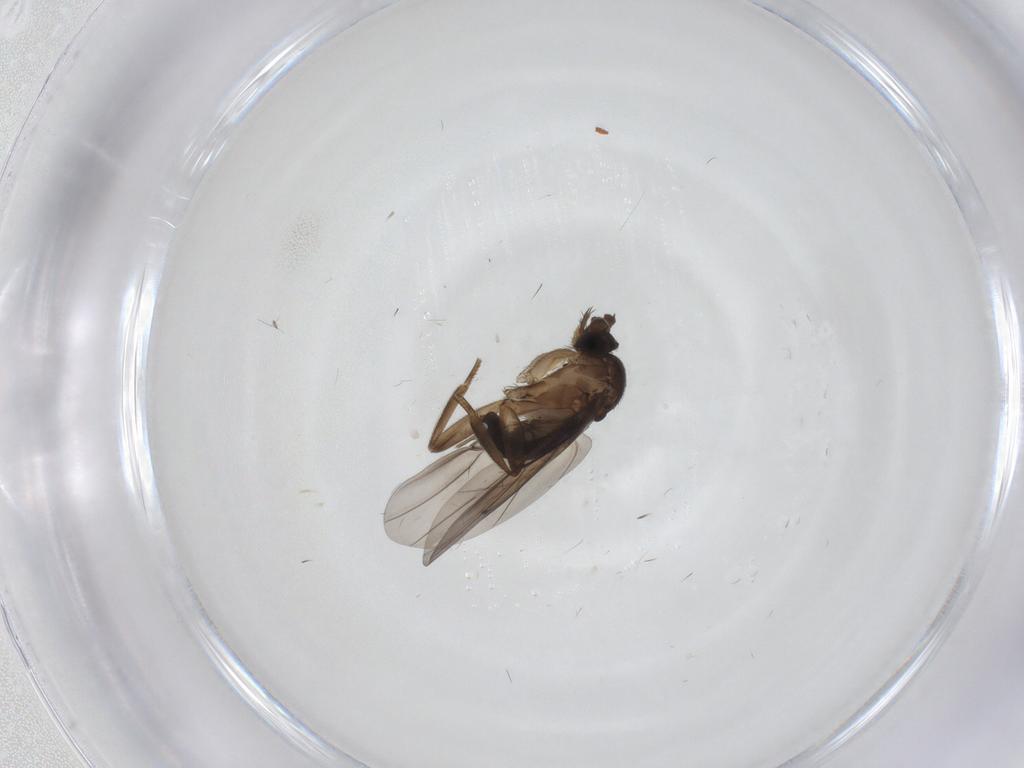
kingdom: Animalia
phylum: Arthropoda
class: Insecta
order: Diptera
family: Phoridae
